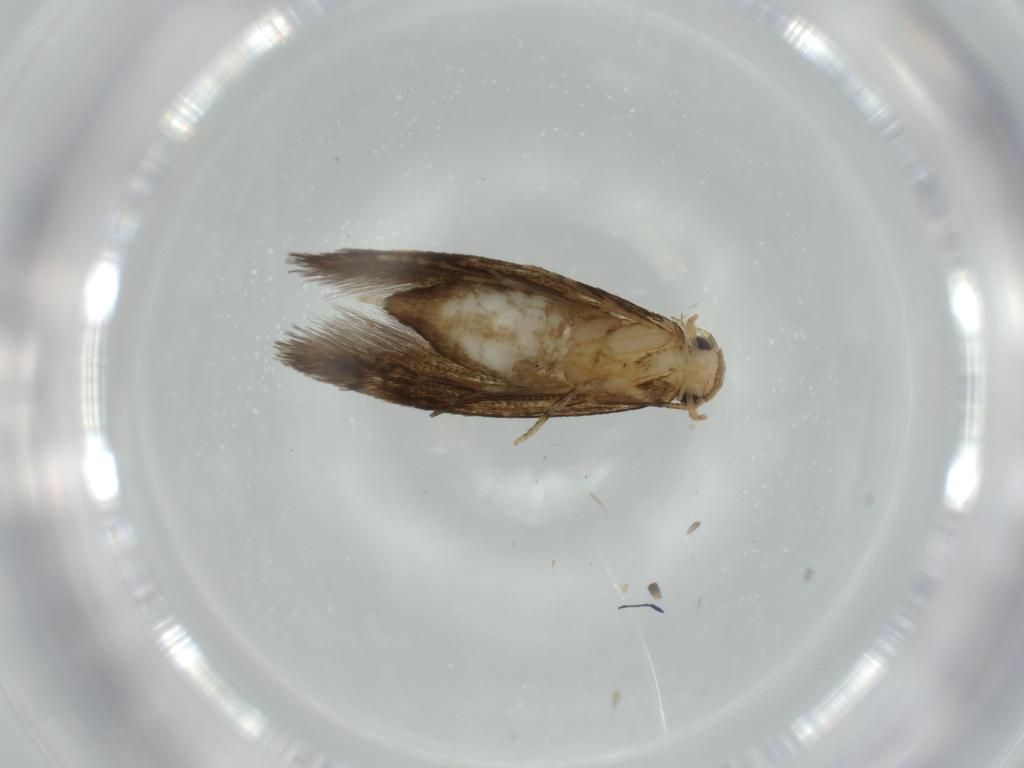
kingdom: Animalia
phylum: Arthropoda
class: Insecta
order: Lepidoptera
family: Tineidae
